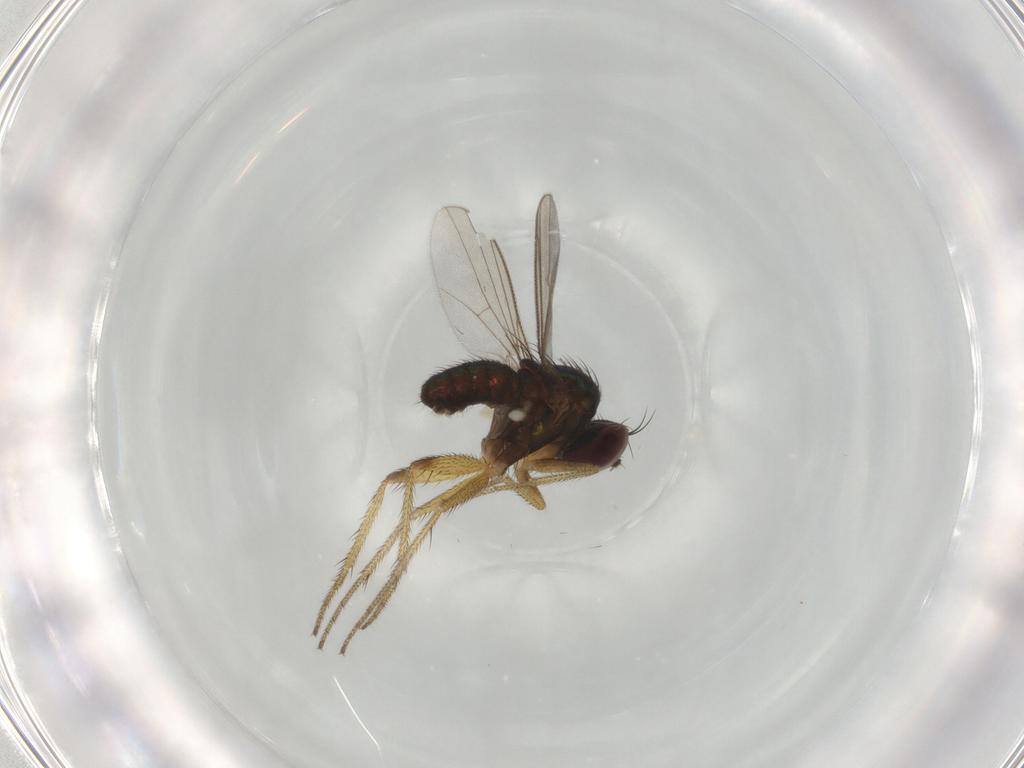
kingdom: Animalia
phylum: Arthropoda
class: Insecta
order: Diptera
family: Dolichopodidae
